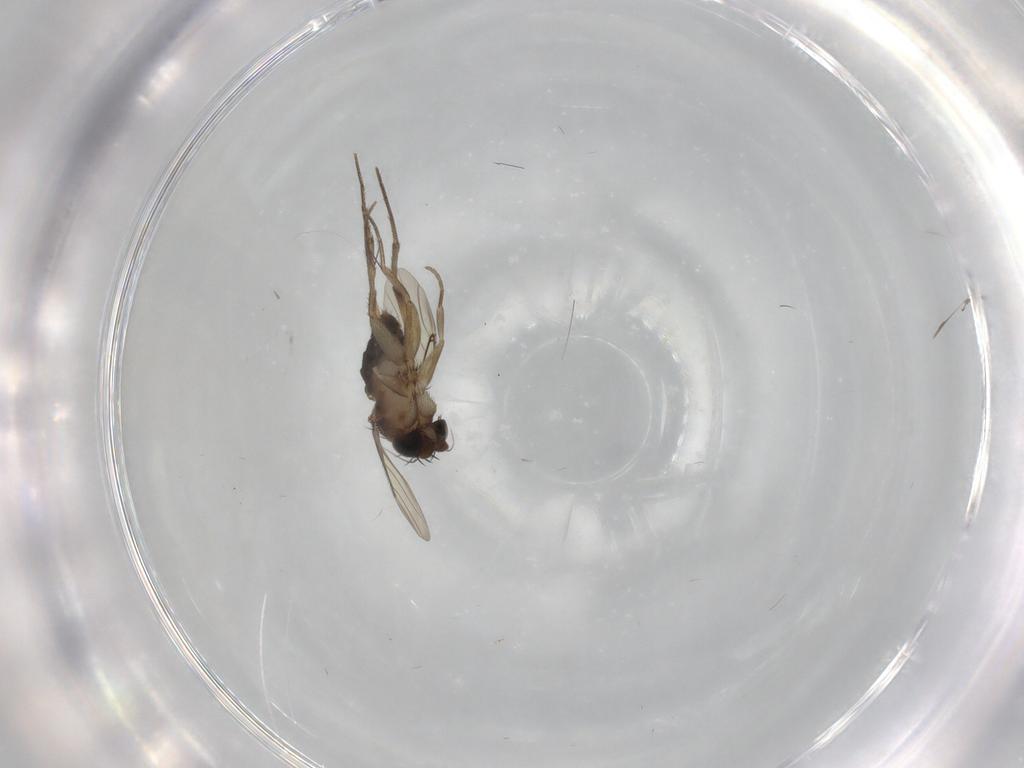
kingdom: Animalia
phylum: Arthropoda
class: Insecta
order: Diptera
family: Phoridae
